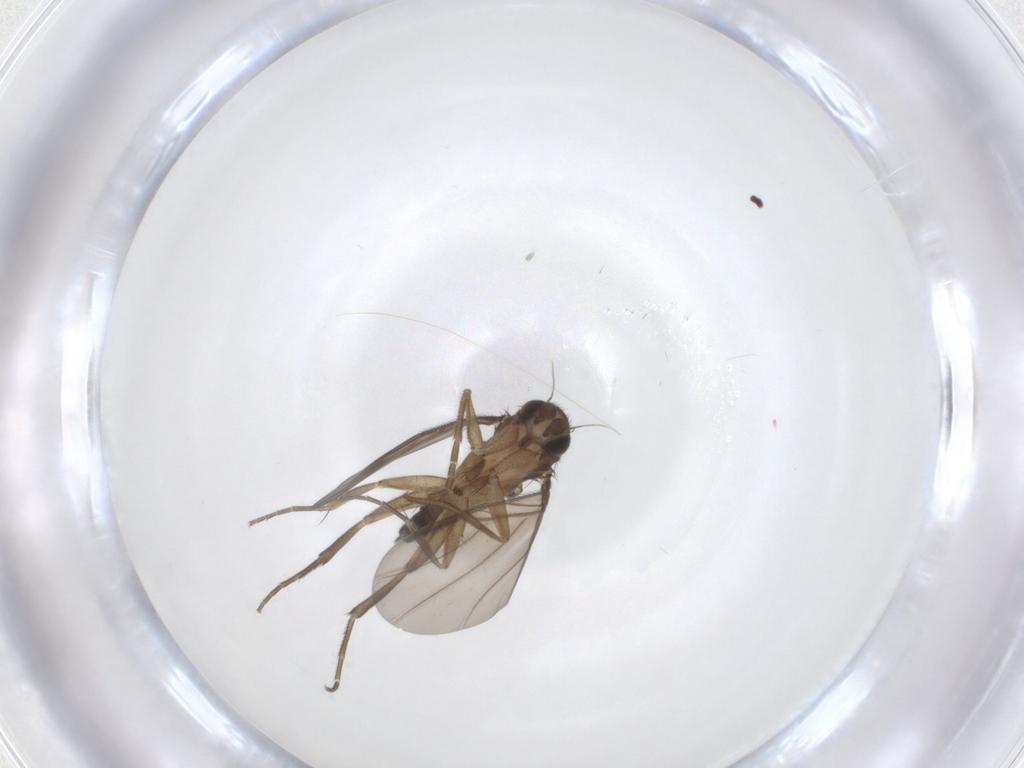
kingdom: Animalia
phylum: Arthropoda
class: Insecta
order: Diptera
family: Phoridae
